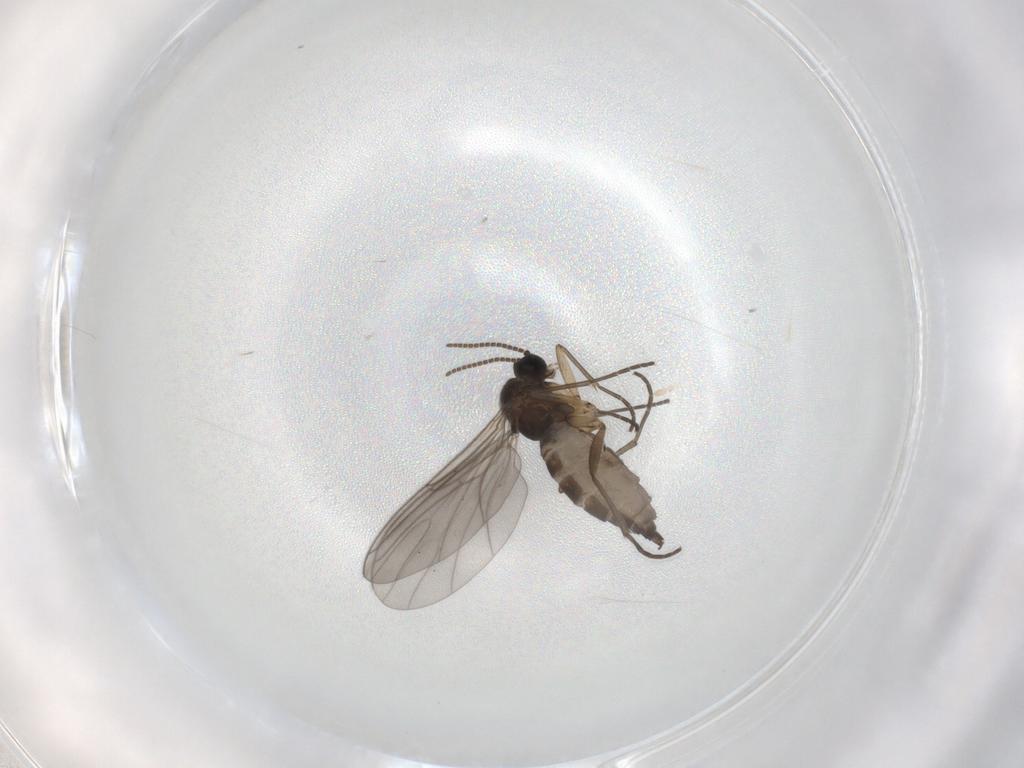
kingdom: Animalia
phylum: Arthropoda
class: Insecta
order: Diptera
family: Sciaridae
